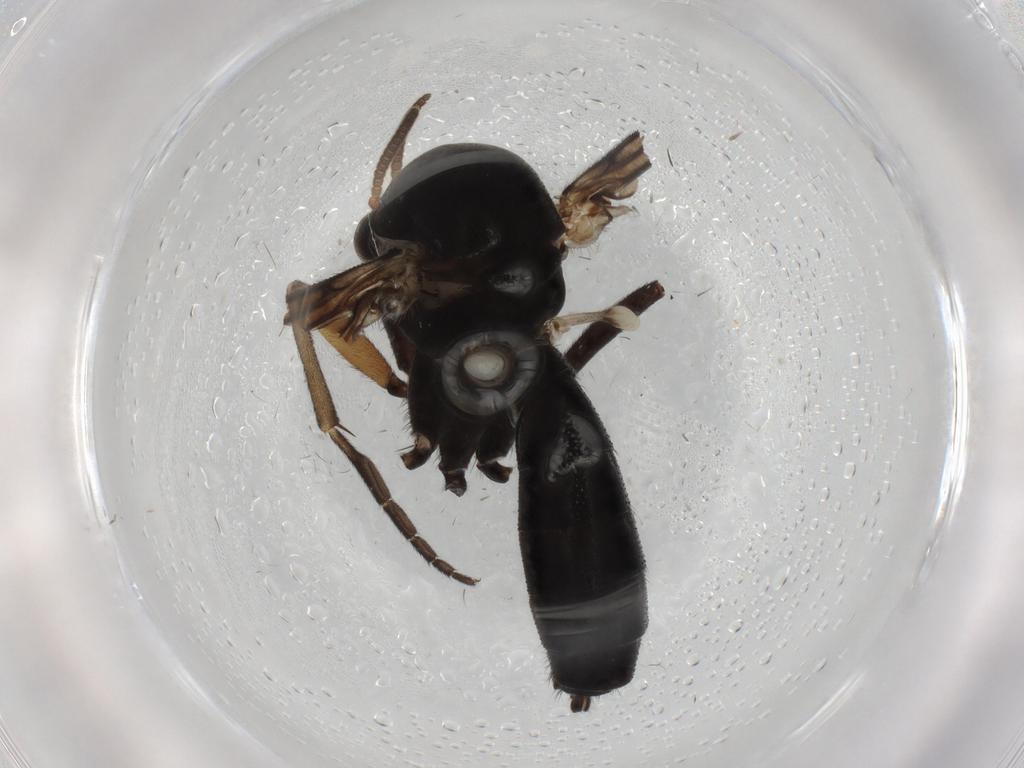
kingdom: Animalia
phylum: Arthropoda
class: Insecta
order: Diptera
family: Mycetophilidae
